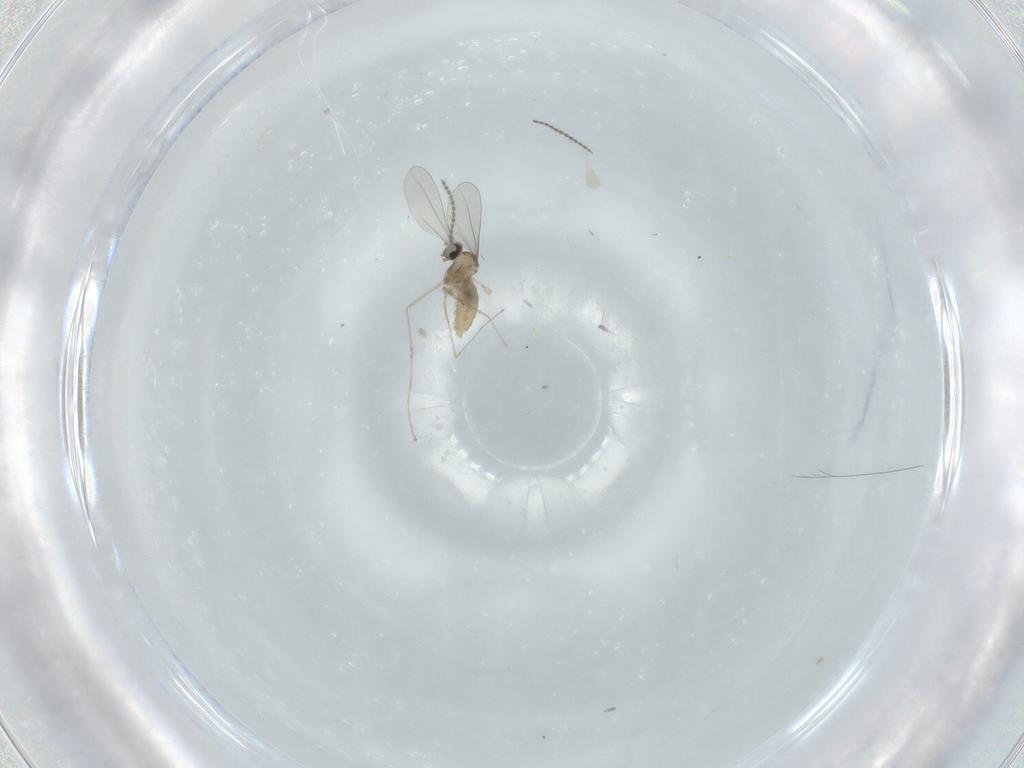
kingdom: Animalia
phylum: Arthropoda
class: Insecta
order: Diptera
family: Cecidomyiidae
